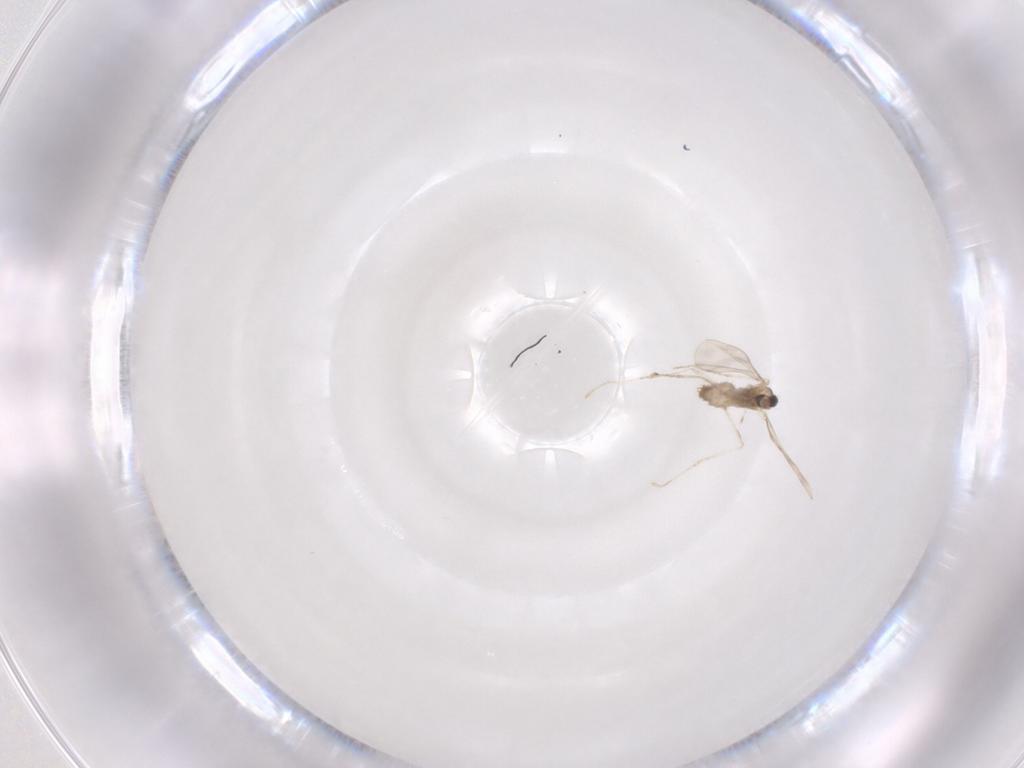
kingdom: Animalia
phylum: Arthropoda
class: Insecta
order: Diptera
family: Cecidomyiidae
